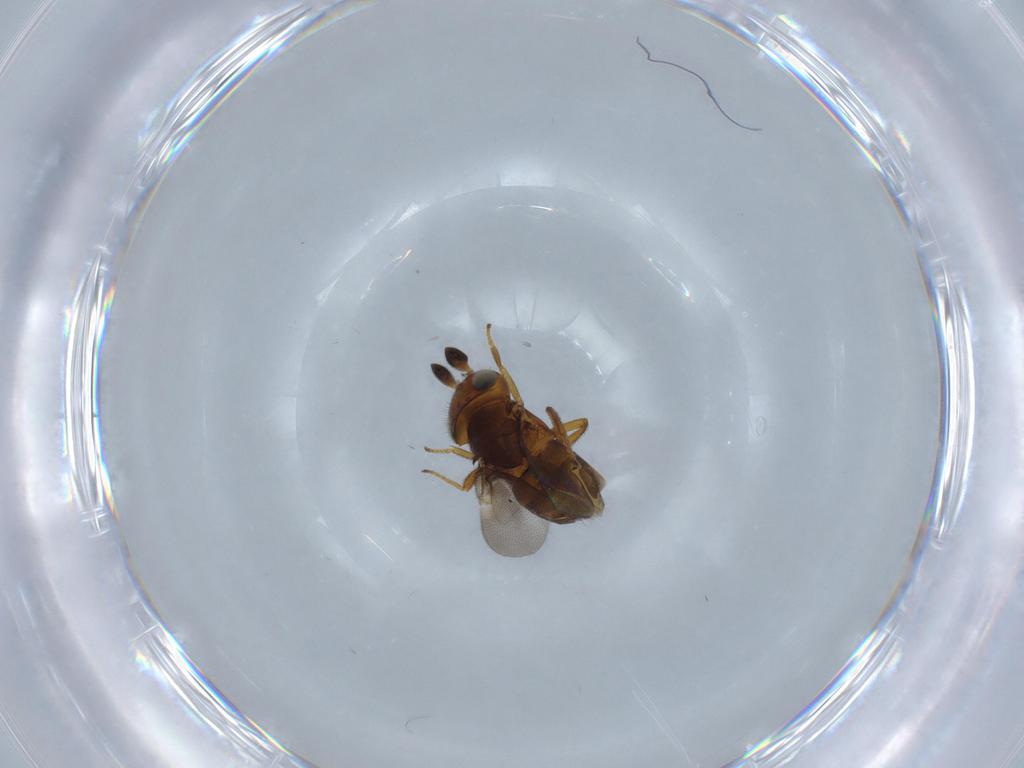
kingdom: Animalia
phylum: Arthropoda
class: Insecta
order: Hymenoptera
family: Encyrtidae
